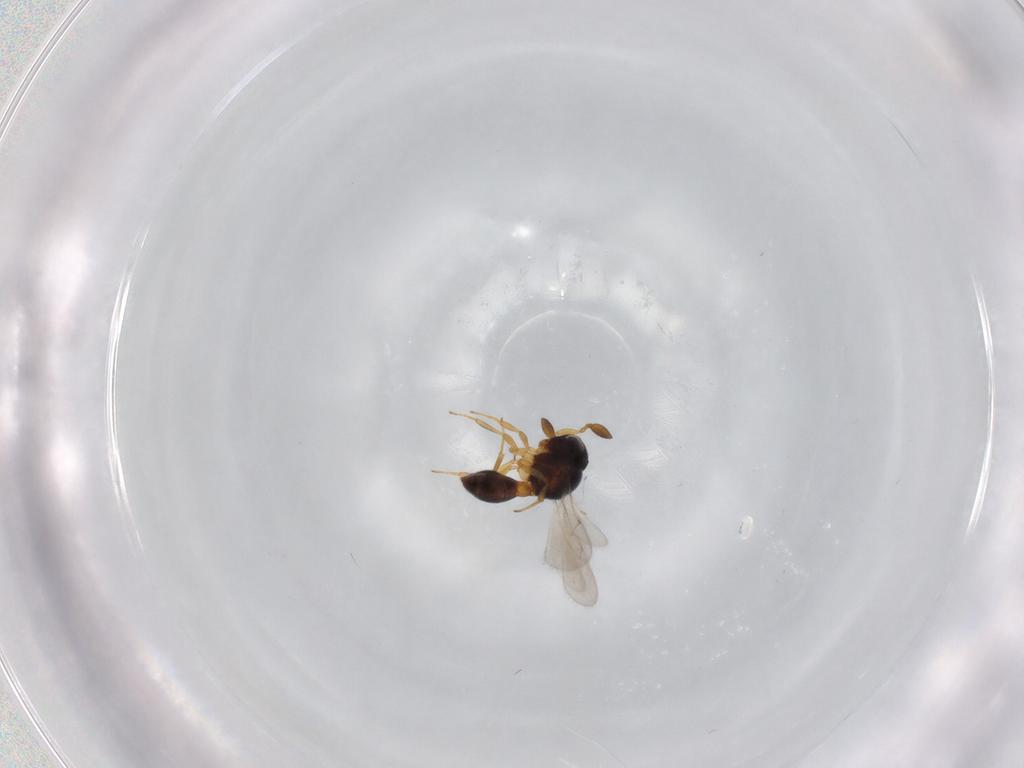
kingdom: Animalia
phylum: Arthropoda
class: Insecta
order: Hymenoptera
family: Scelionidae
